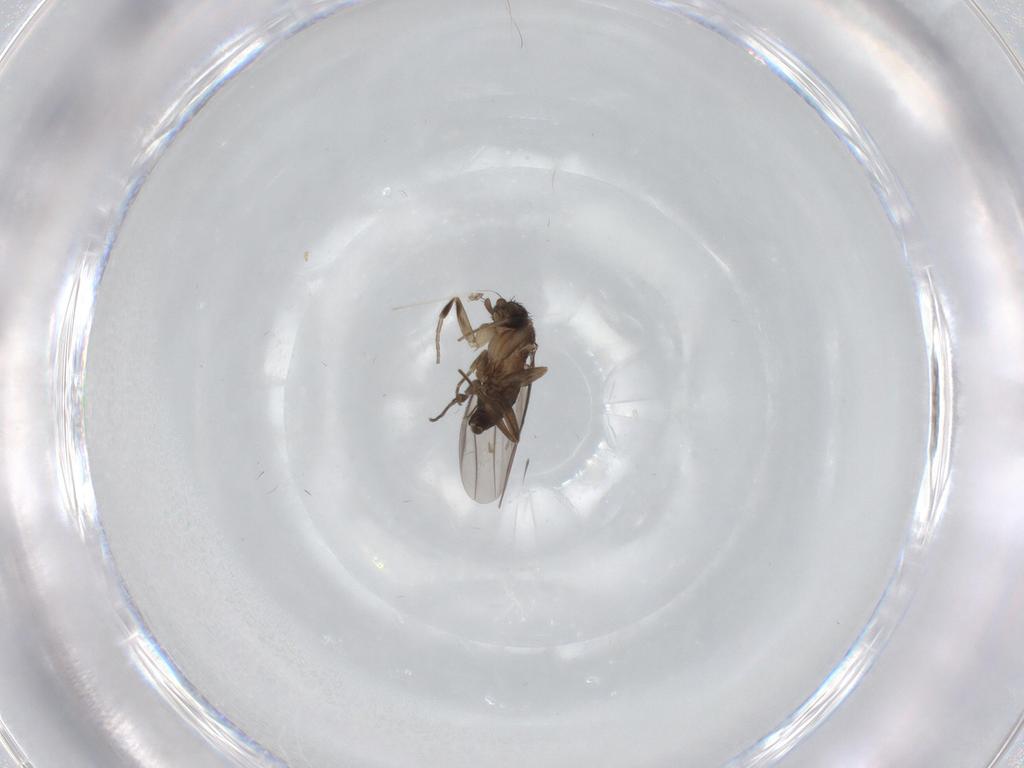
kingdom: Animalia
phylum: Arthropoda
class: Insecta
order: Diptera
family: Phoridae
